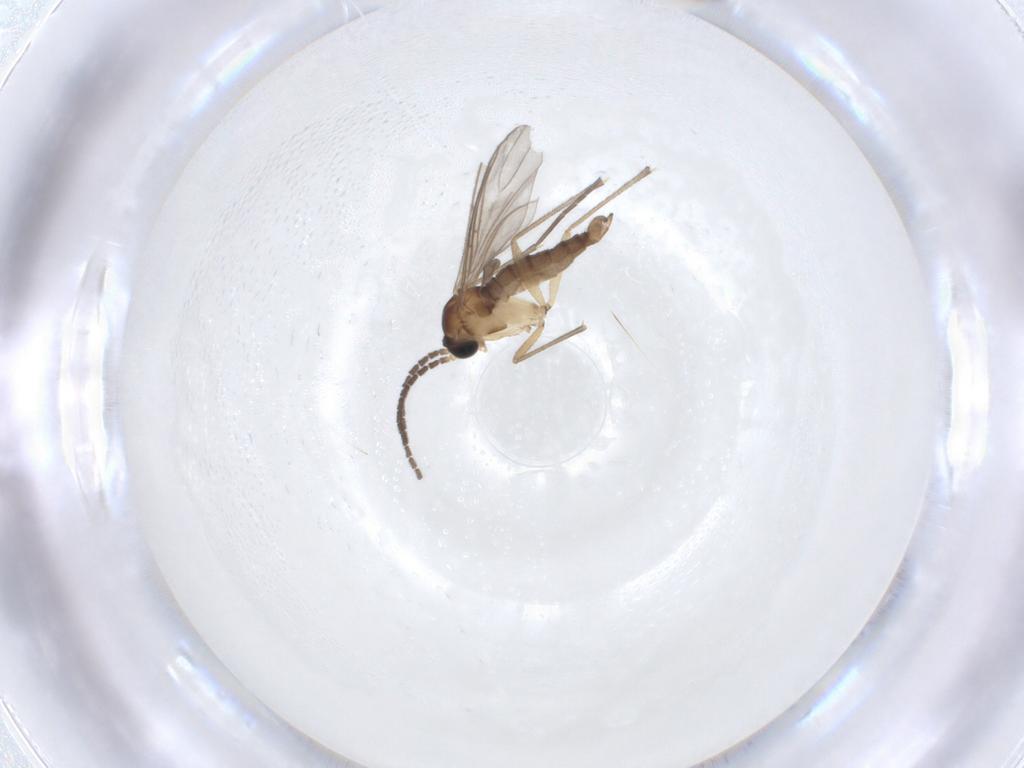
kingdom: Animalia
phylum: Arthropoda
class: Insecta
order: Diptera
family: Sciaridae
